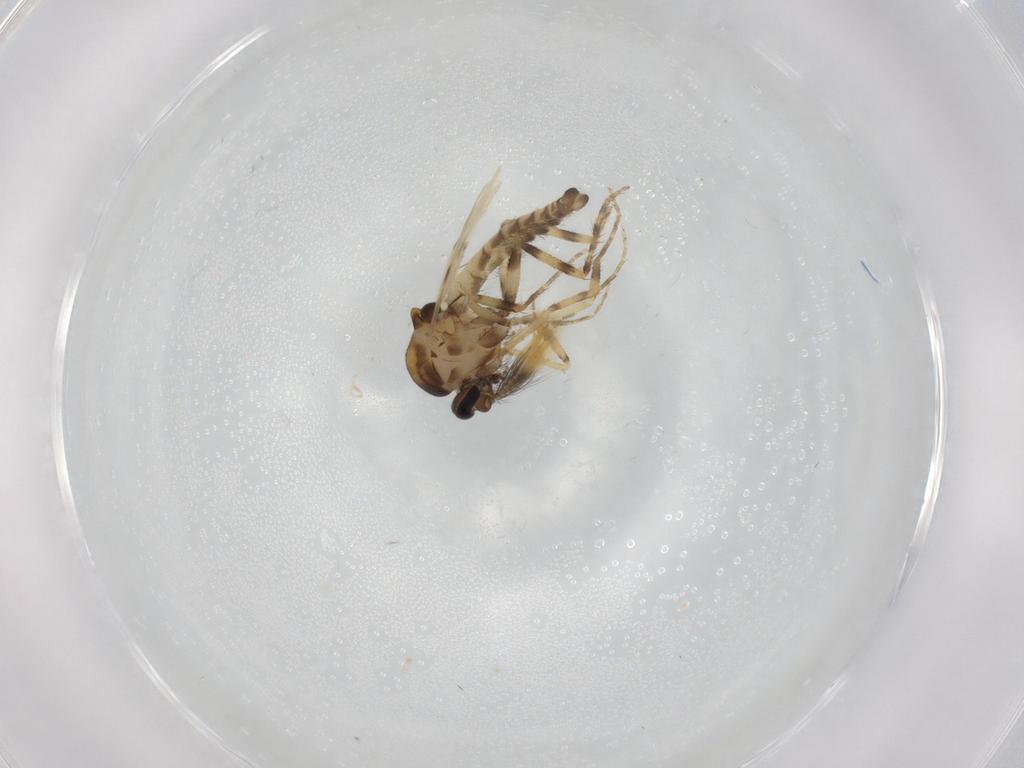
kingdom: Animalia
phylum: Arthropoda
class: Insecta
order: Diptera
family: Ceratopogonidae
